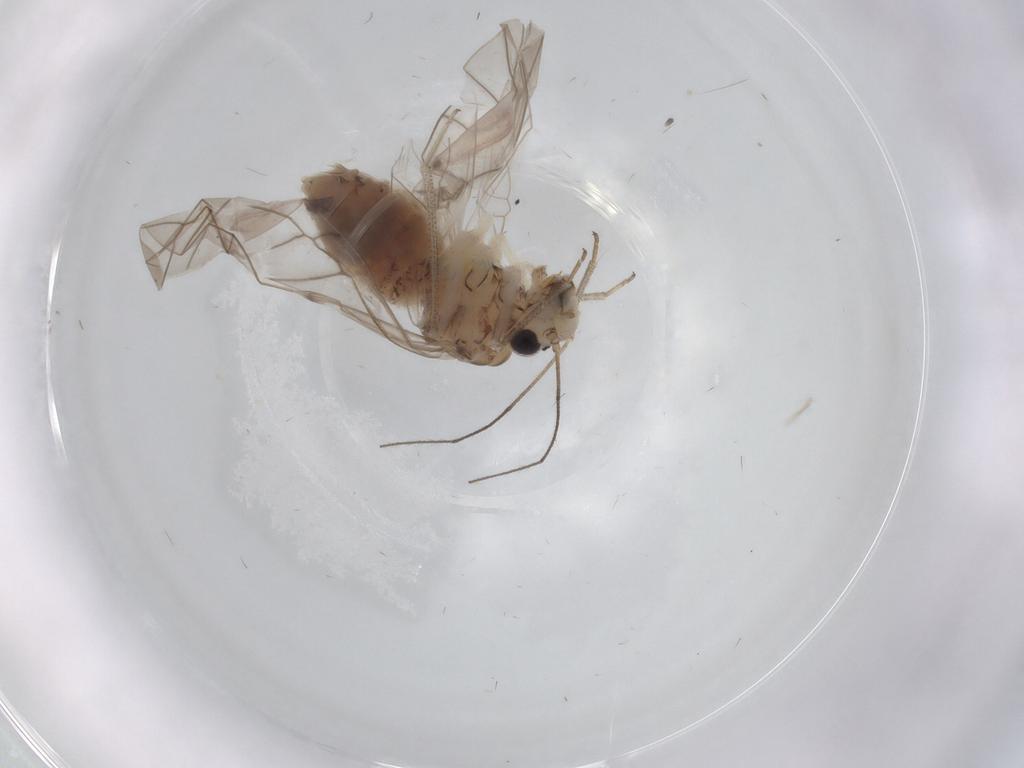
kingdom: Animalia
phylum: Arthropoda
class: Insecta
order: Psocodea
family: Psocidae
